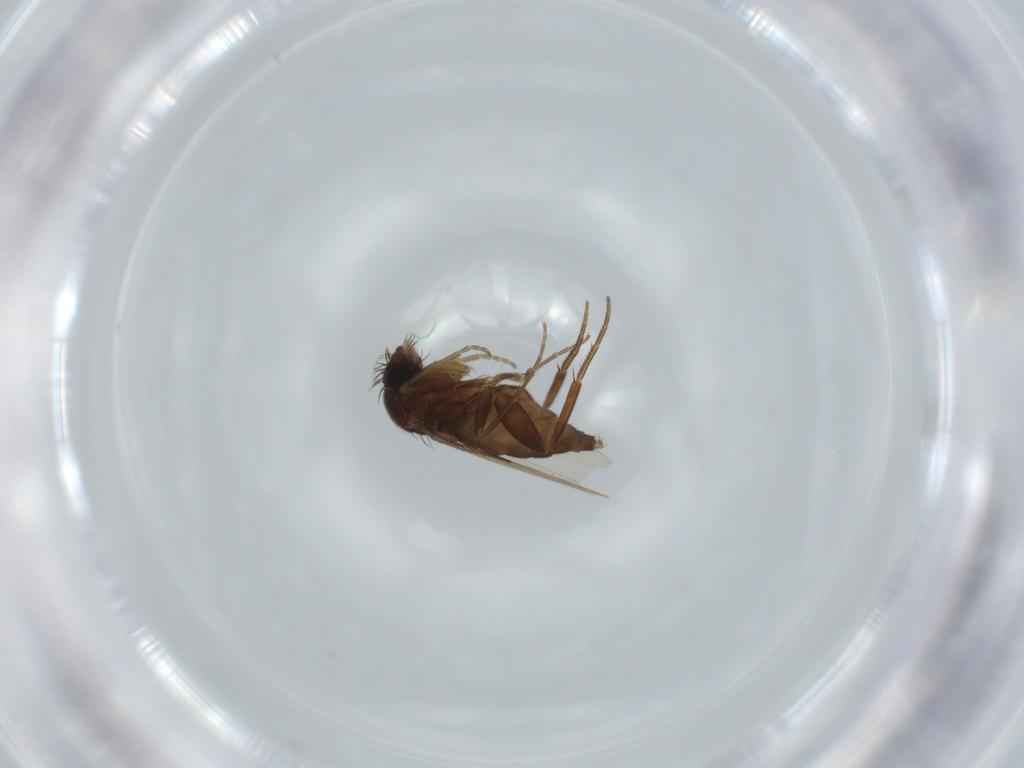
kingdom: Animalia
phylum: Arthropoda
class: Insecta
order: Diptera
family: Phoridae
